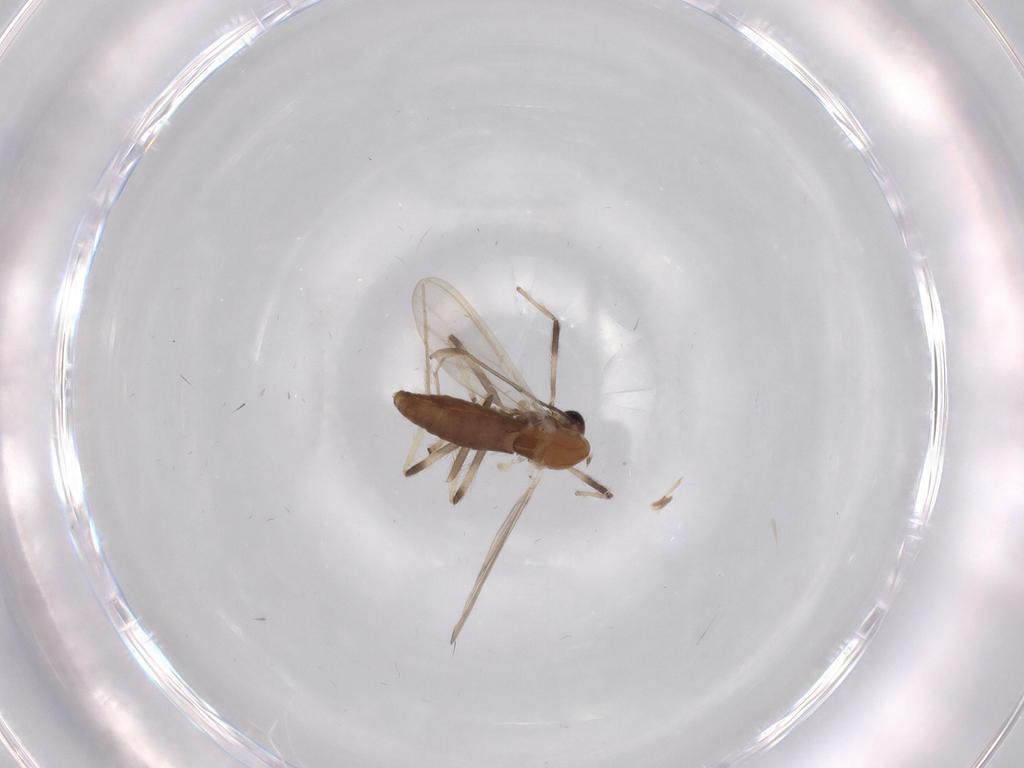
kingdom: Animalia
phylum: Arthropoda
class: Insecta
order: Diptera
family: Chironomidae
